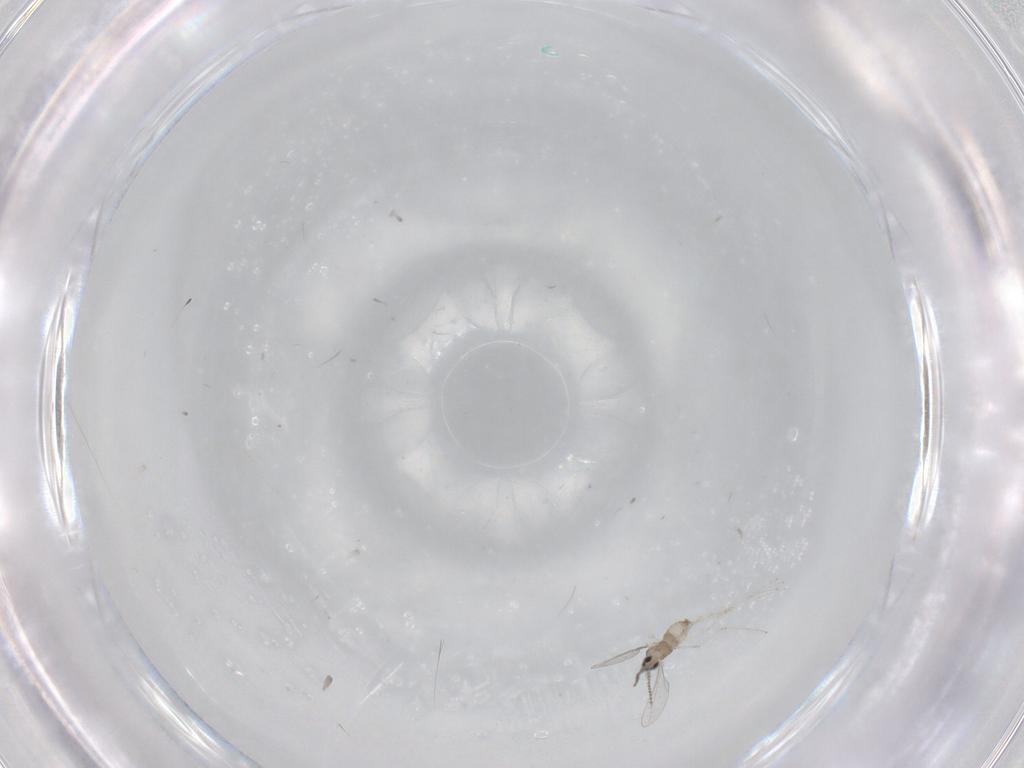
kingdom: Animalia
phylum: Arthropoda
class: Insecta
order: Diptera
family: Cecidomyiidae
